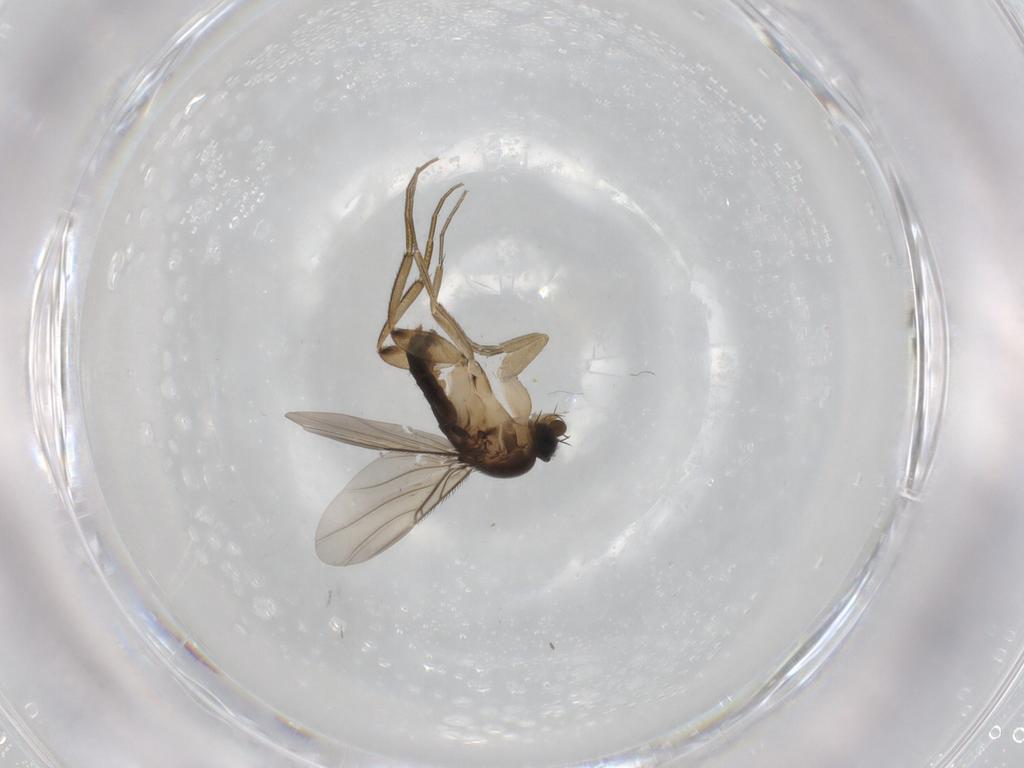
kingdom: Animalia
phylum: Arthropoda
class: Insecta
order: Diptera
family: Phoridae
